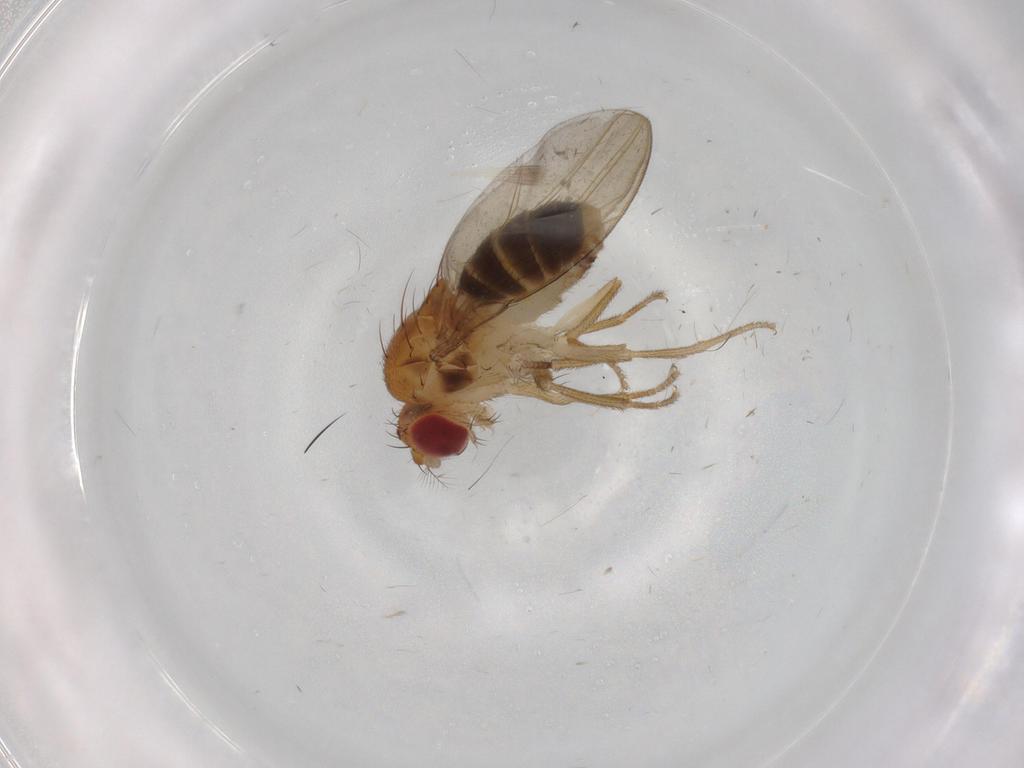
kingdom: Animalia
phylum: Arthropoda
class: Insecta
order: Diptera
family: Drosophilidae
